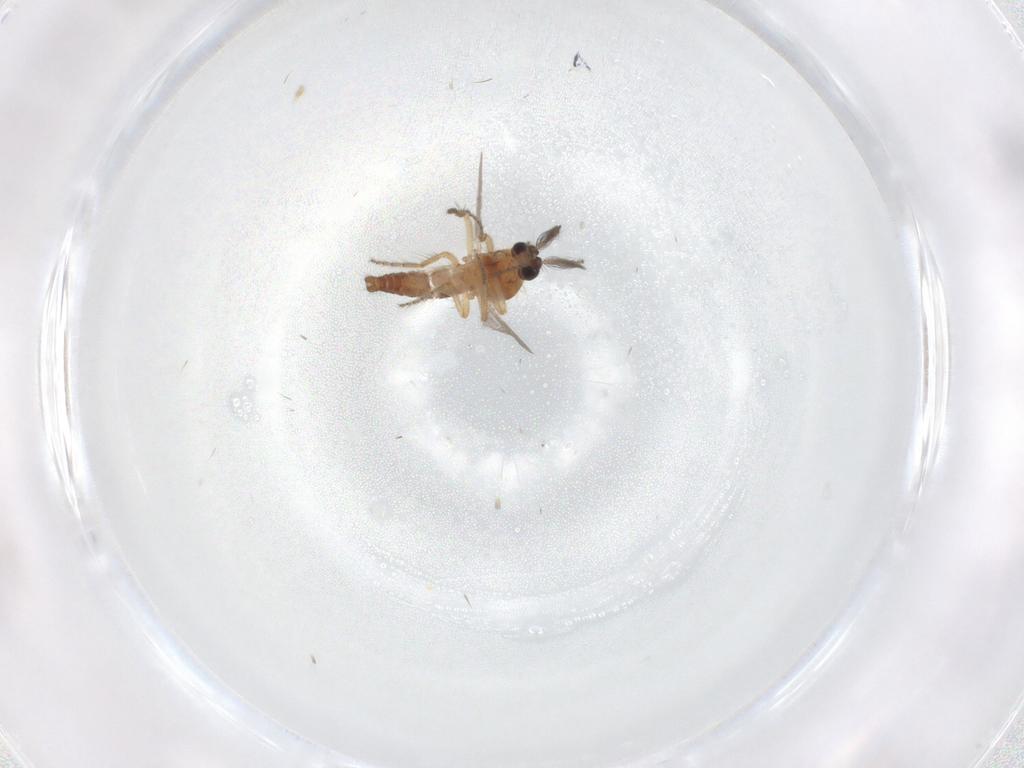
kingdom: Animalia
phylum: Arthropoda
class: Insecta
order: Diptera
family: Ceratopogonidae
